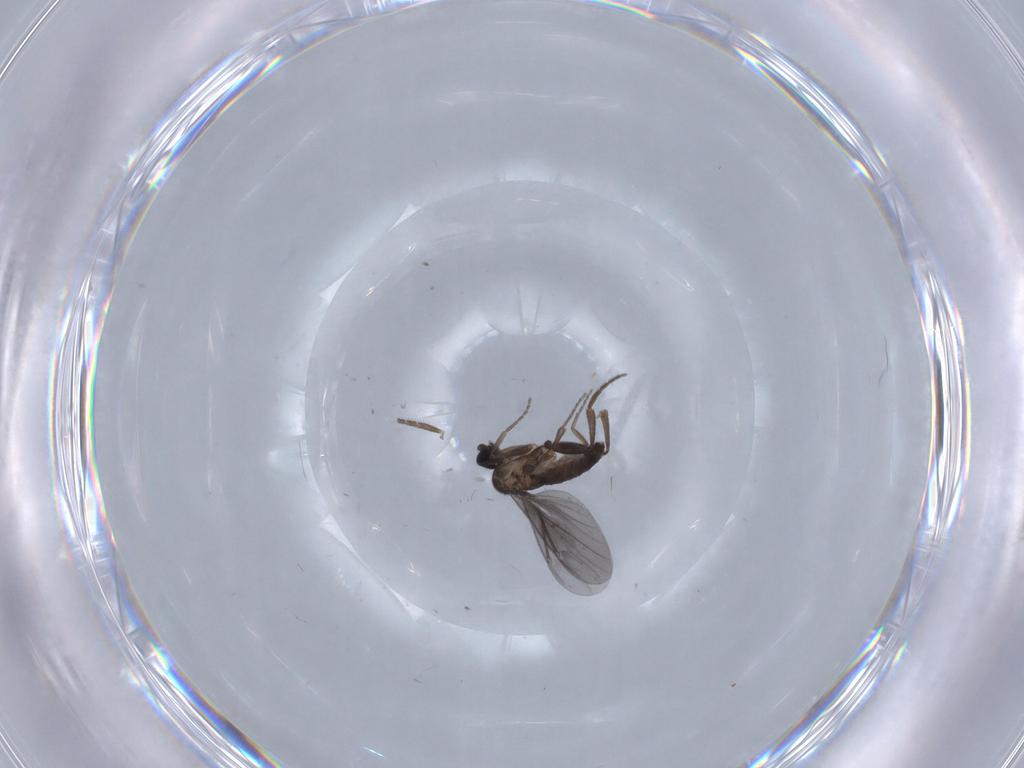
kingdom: Animalia
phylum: Arthropoda
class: Insecta
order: Diptera
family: Phoridae
